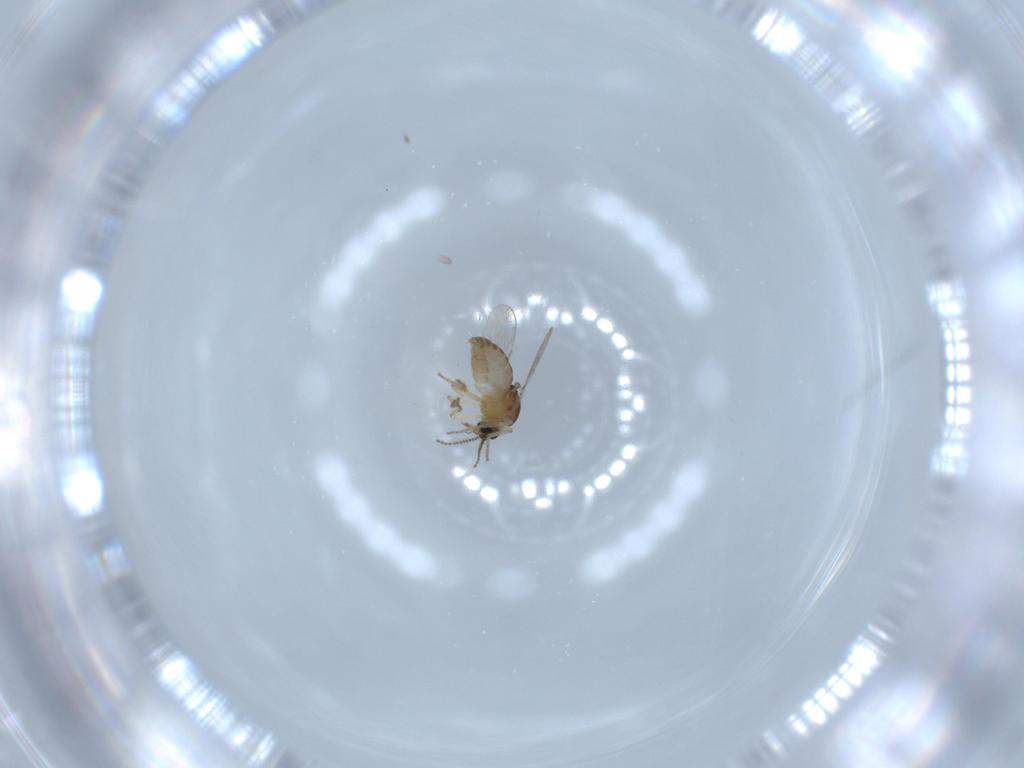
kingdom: Animalia
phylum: Arthropoda
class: Insecta
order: Diptera
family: Ceratopogonidae
